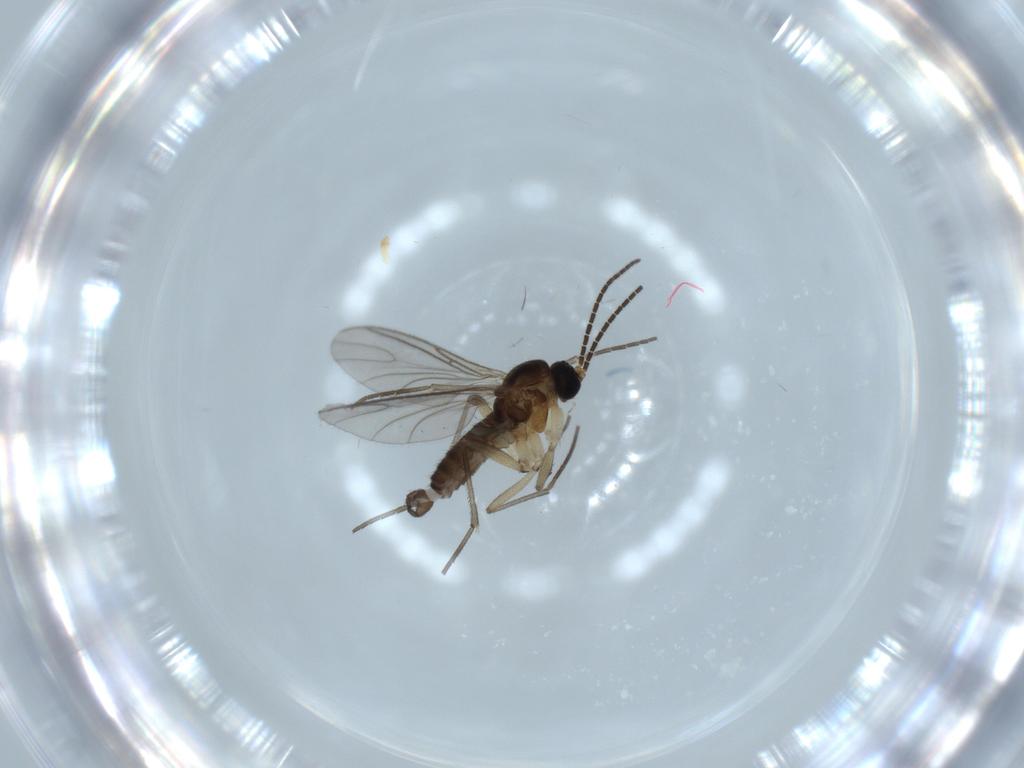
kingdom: Animalia
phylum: Arthropoda
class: Insecta
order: Diptera
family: Sciaridae
